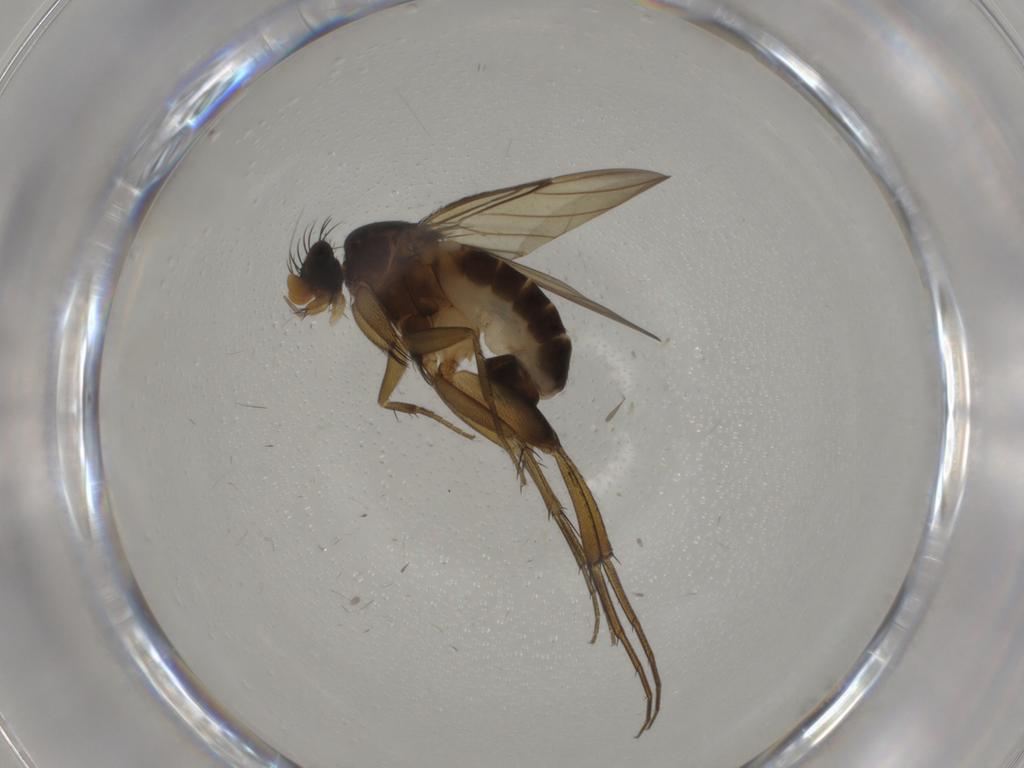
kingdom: Animalia
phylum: Arthropoda
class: Insecta
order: Diptera
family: Phoridae
